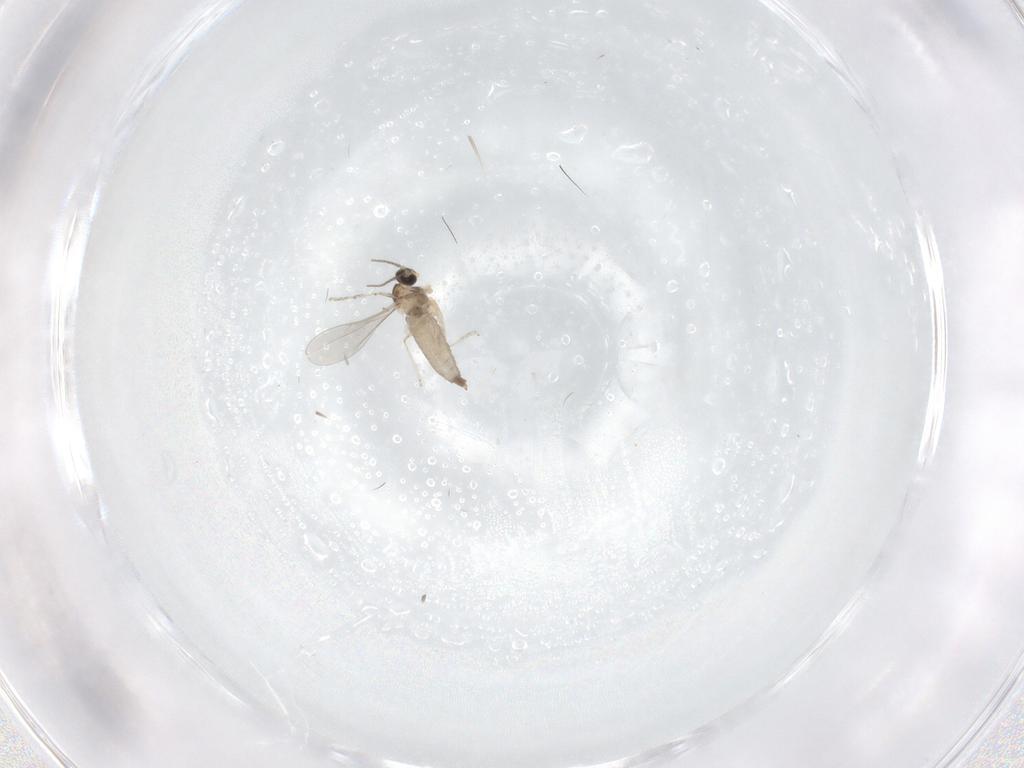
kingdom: Animalia
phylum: Arthropoda
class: Insecta
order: Diptera
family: Cecidomyiidae
